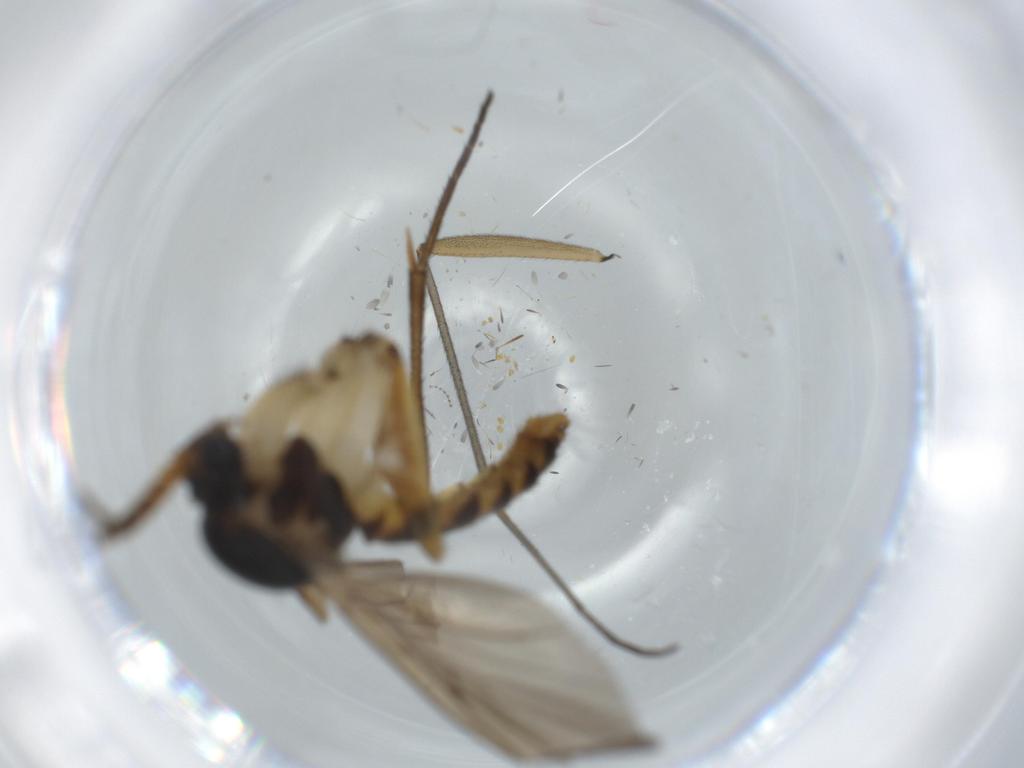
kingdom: Animalia
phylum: Arthropoda
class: Insecta
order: Diptera
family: Phoridae
